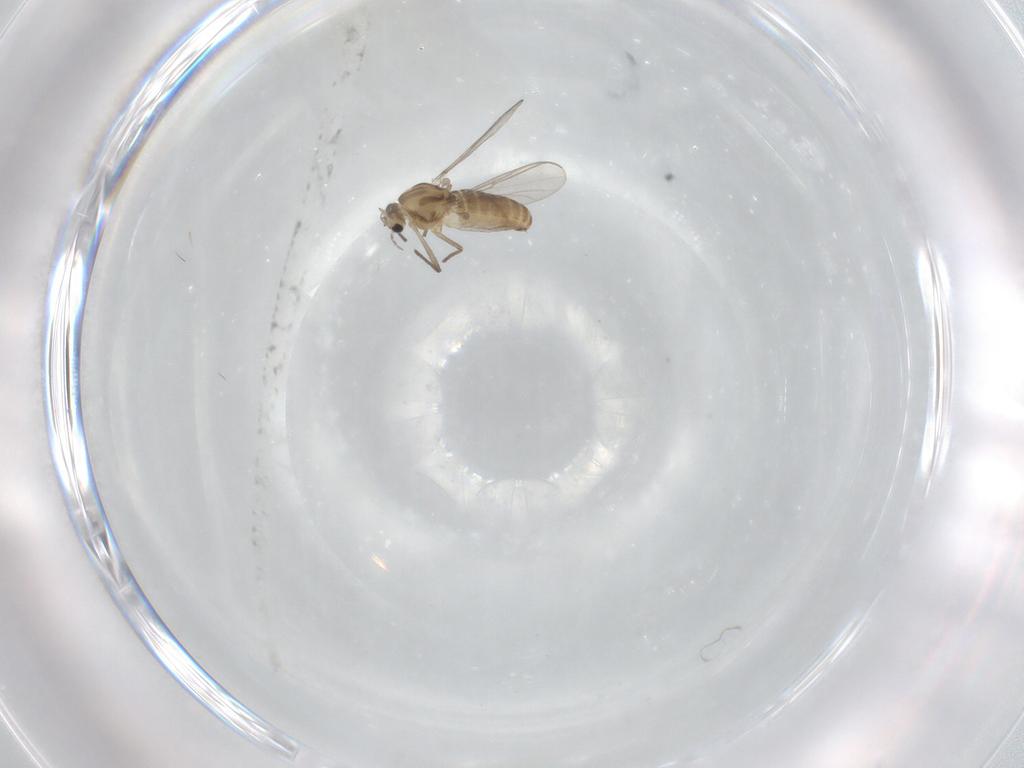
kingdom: Animalia
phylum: Arthropoda
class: Insecta
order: Diptera
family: Chironomidae
